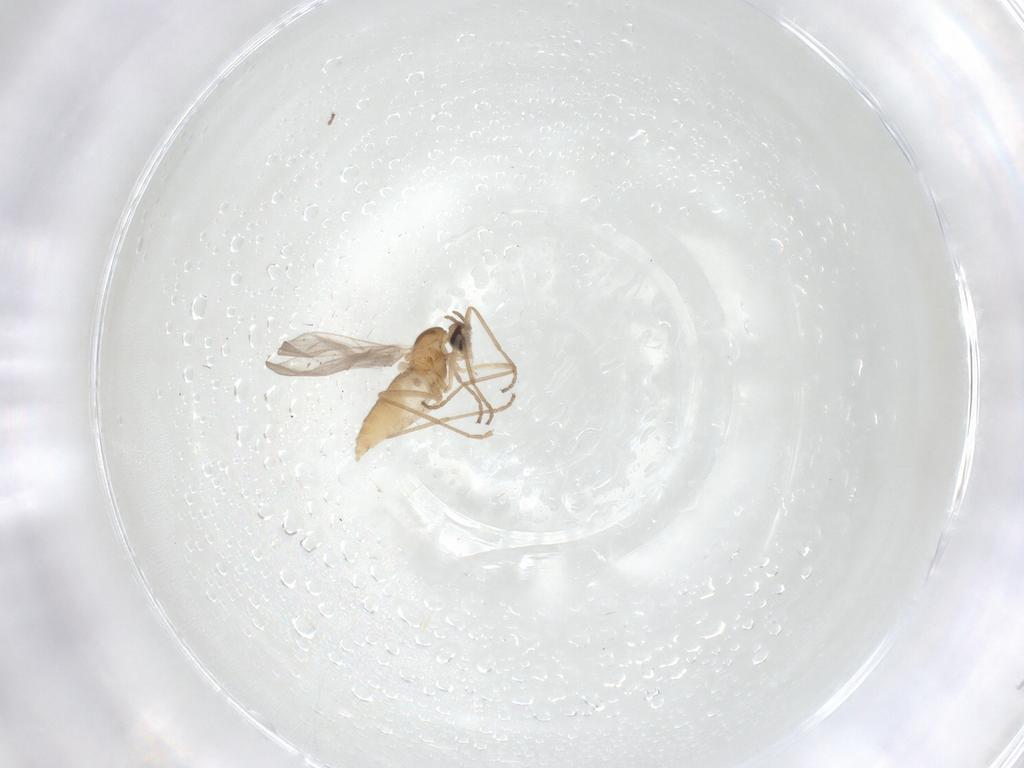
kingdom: Animalia
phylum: Arthropoda
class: Insecta
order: Diptera
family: Cecidomyiidae
